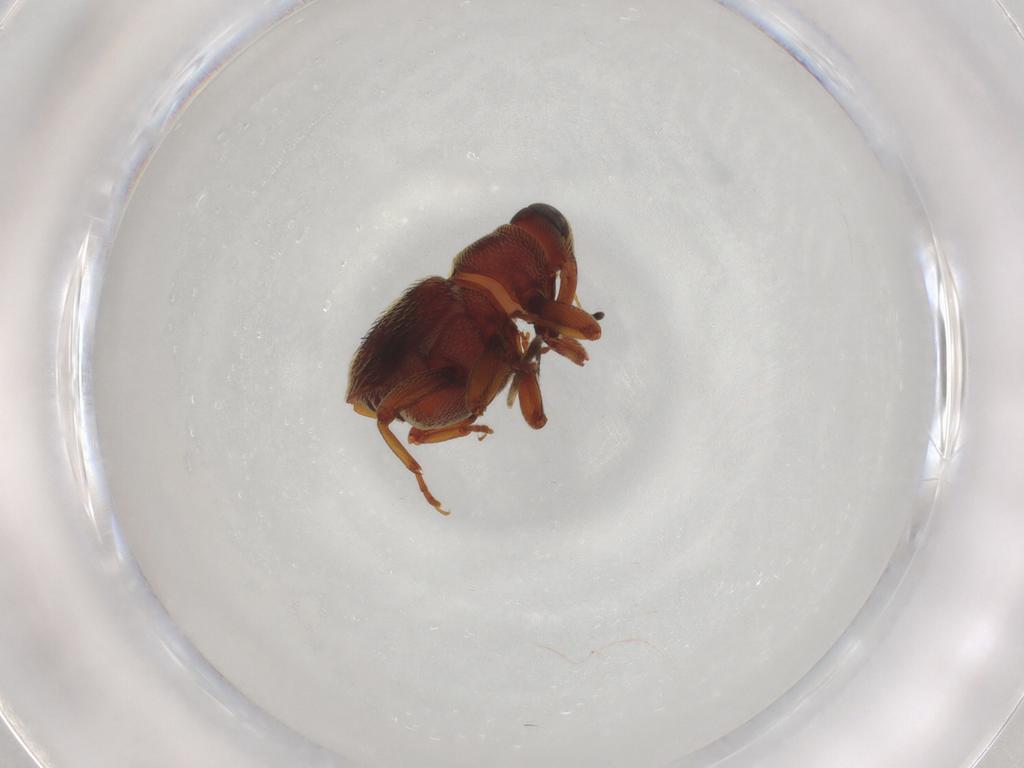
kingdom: Animalia
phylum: Arthropoda
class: Insecta
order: Coleoptera
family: Curculionidae
